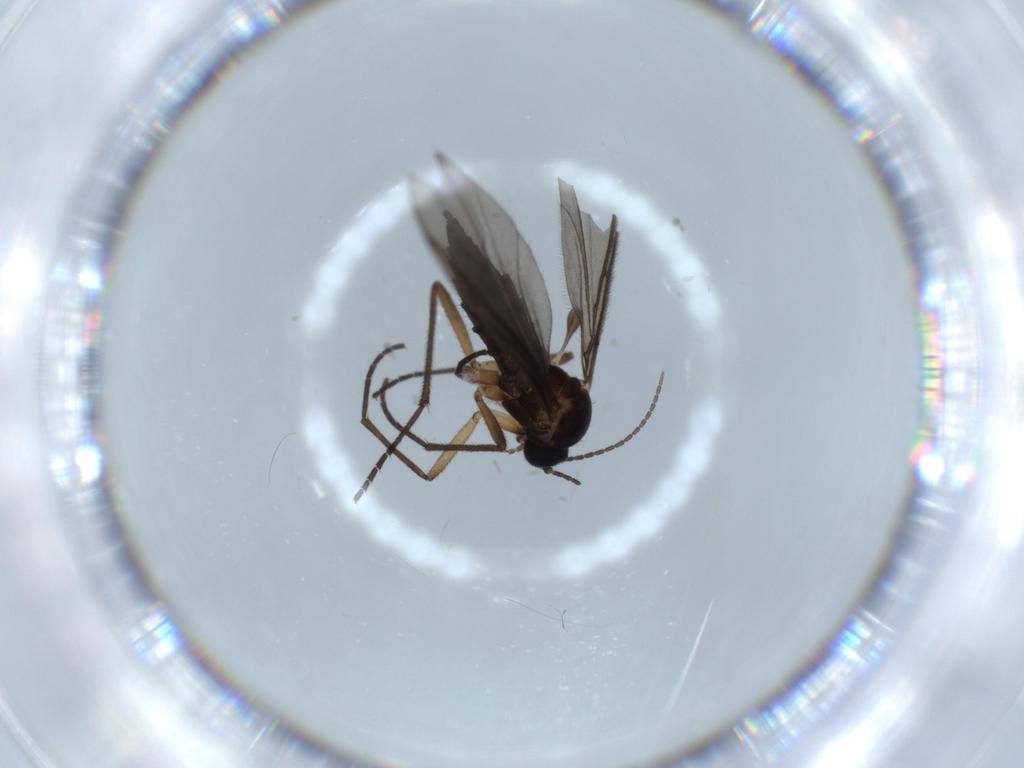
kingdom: Animalia
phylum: Arthropoda
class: Insecta
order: Diptera
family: Sciaridae
